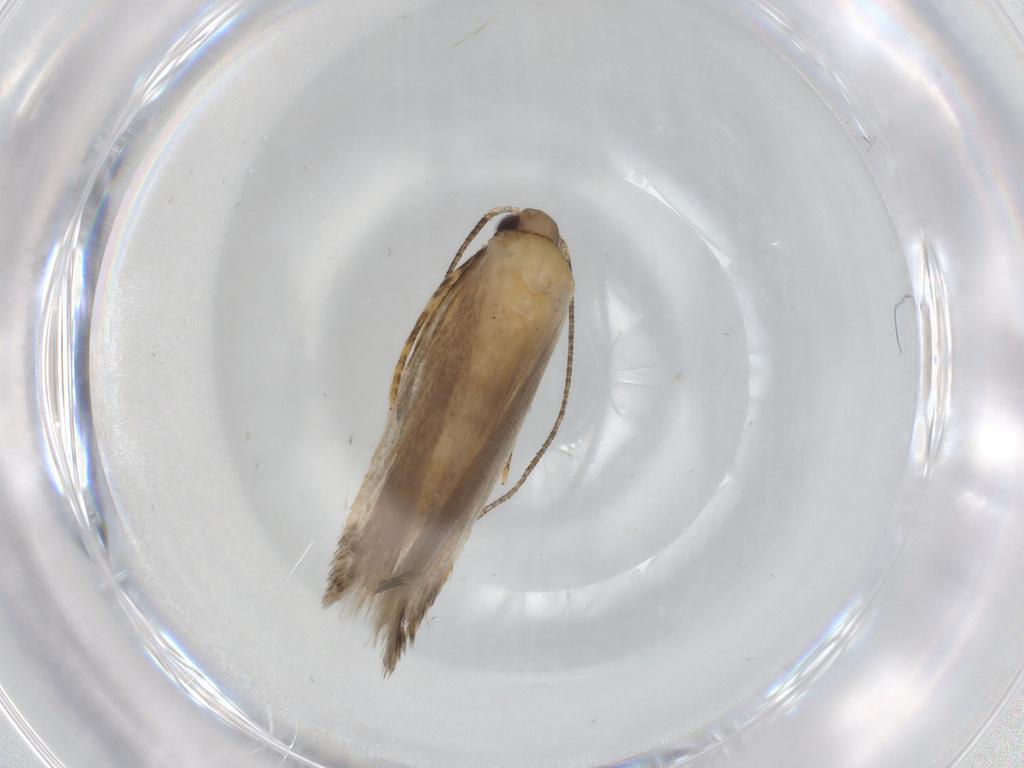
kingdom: Animalia
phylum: Arthropoda
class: Insecta
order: Lepidoptera
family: Autostichidae
